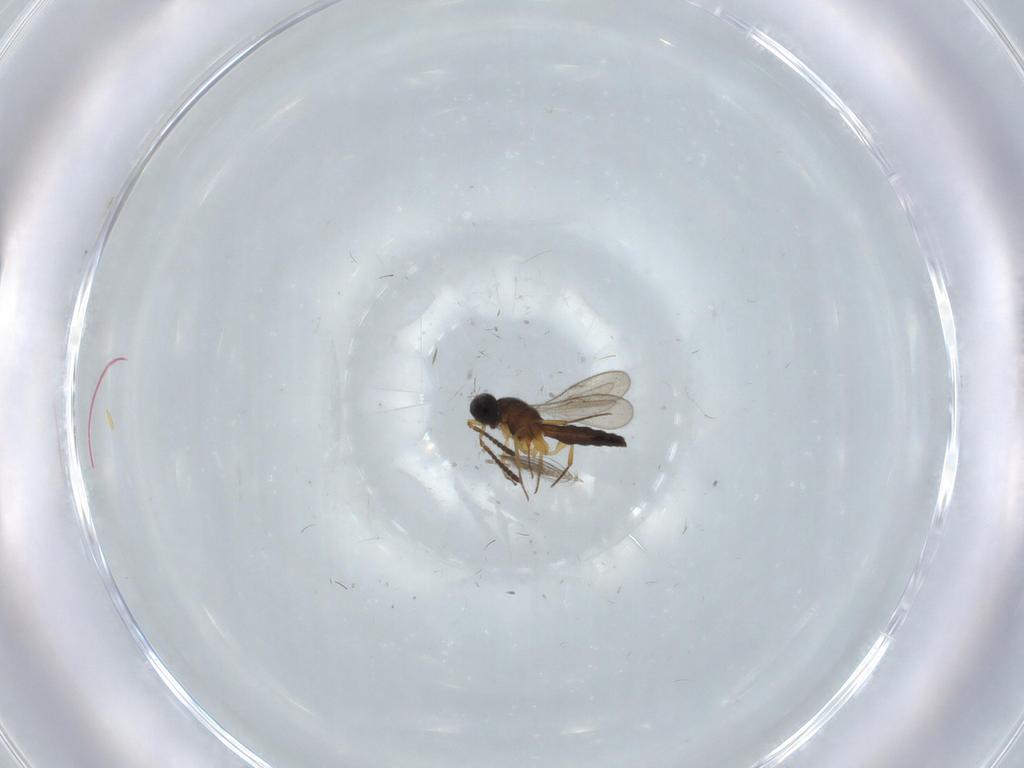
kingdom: Animalia
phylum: Arthropoda
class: Insecta
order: Hymenoptera
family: Scelionidae
